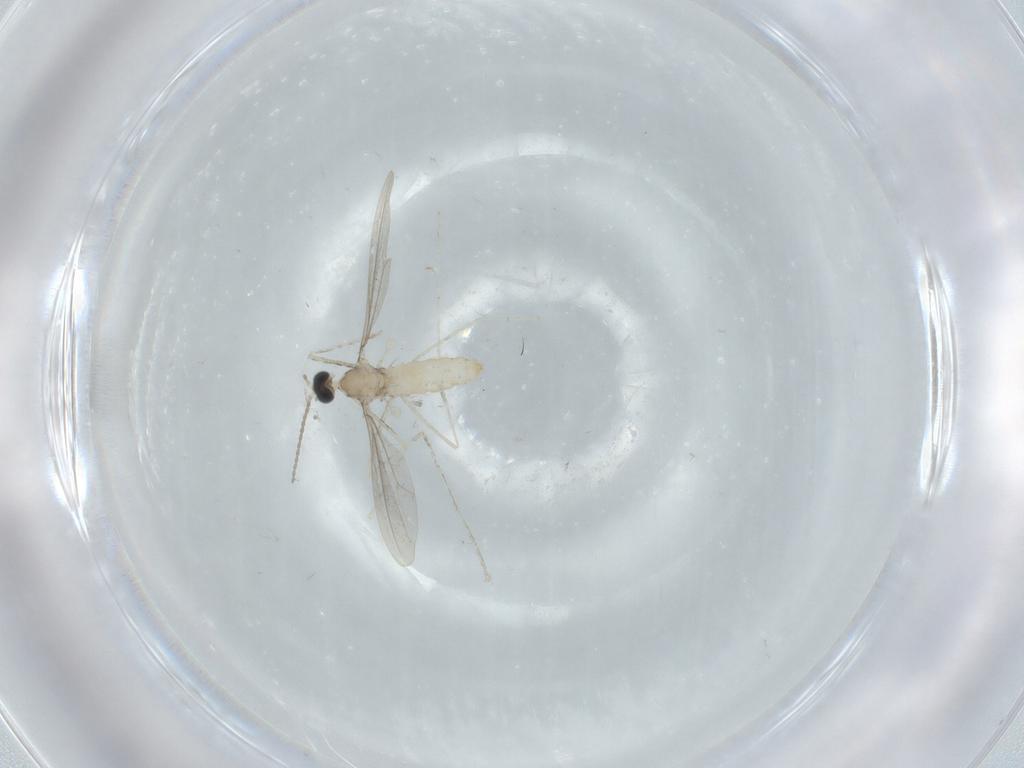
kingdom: Animalia
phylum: Arthropoda
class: Insecta
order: Diptera
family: Cecidomyiidae
